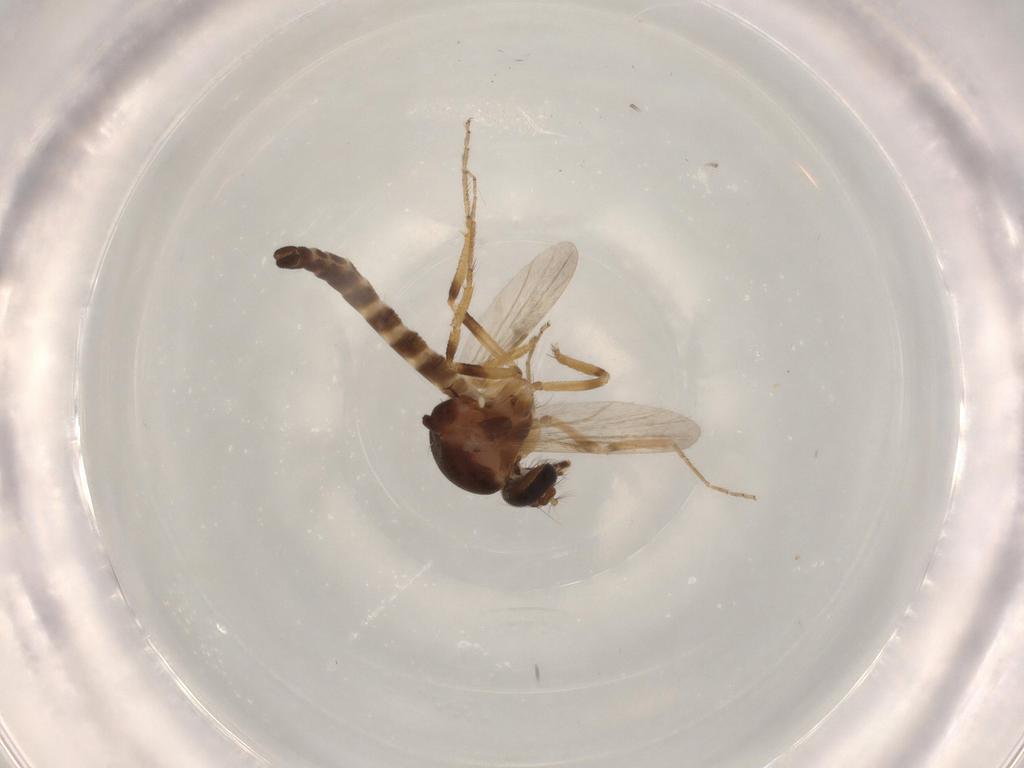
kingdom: Animalia
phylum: Arthropoda
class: Insecta
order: Diptera
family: Ceratopogonidae
